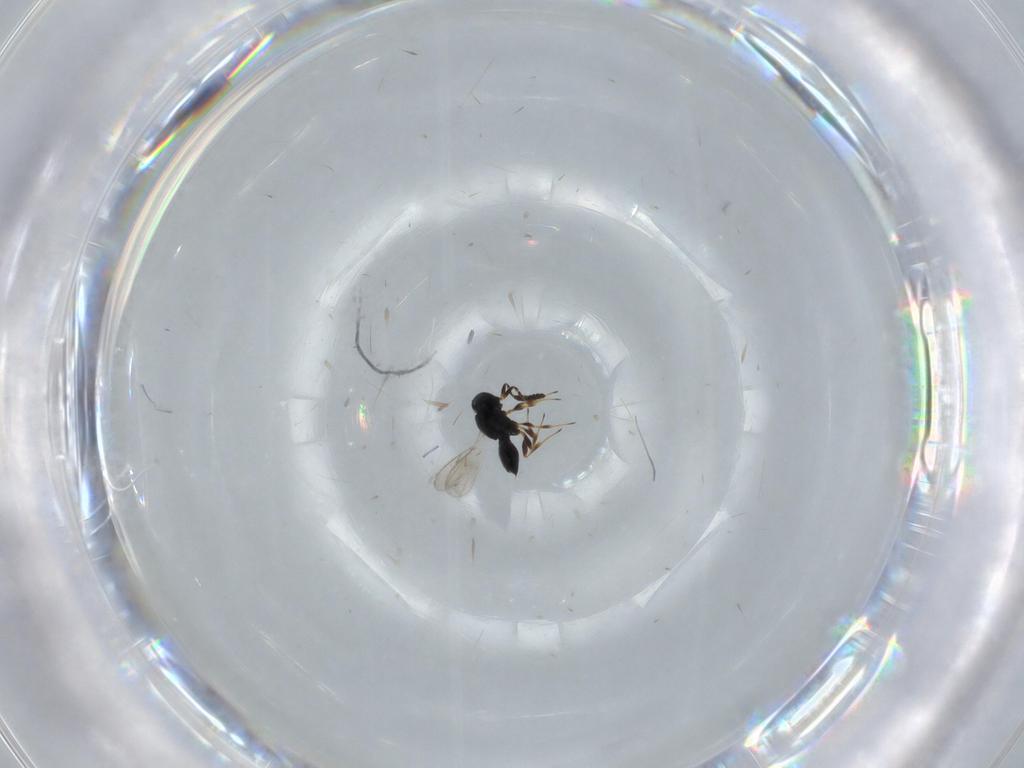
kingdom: Animalia
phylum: Arthropoda
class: Insecta
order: Hymenoptera
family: Scelionidae
